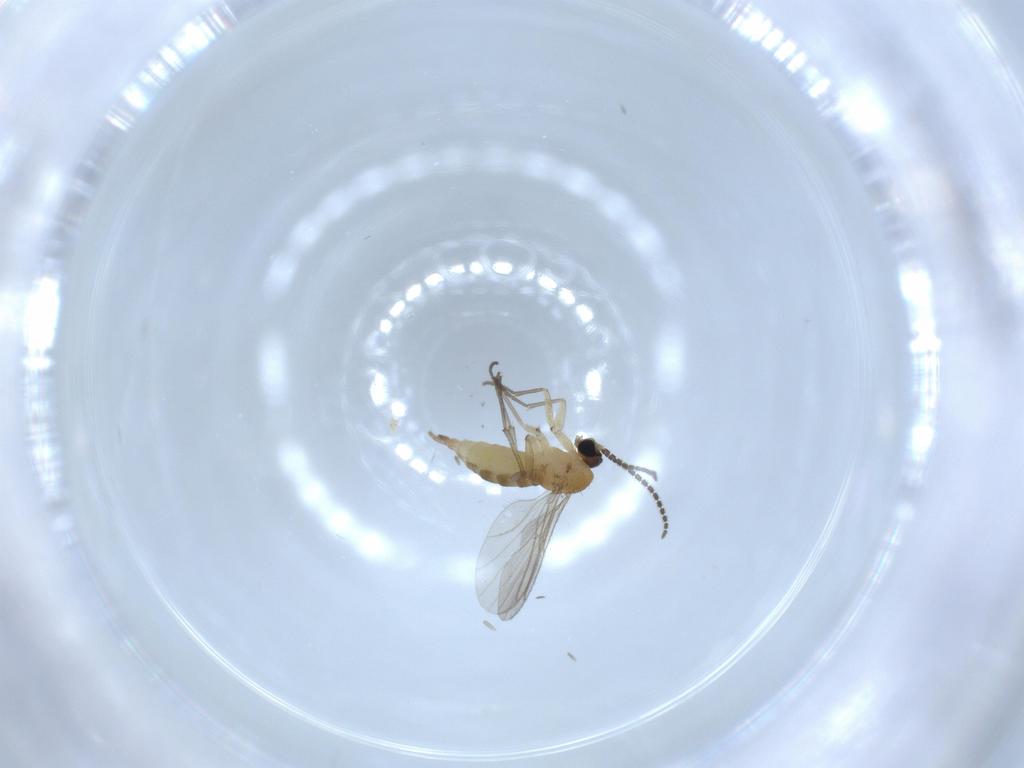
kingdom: Animalia
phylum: Arthropoda
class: Insecta
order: Diptera
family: Sciaridae
